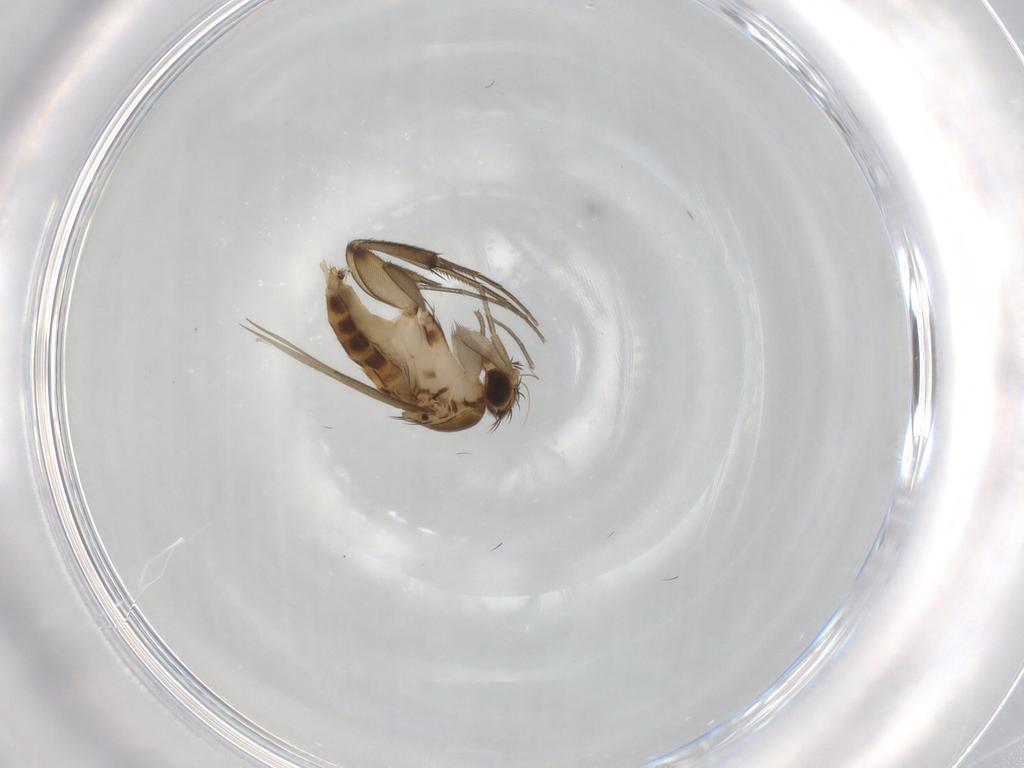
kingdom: Animalia
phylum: Arthropoda
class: Insecta
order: Diptera
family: Phoridae
